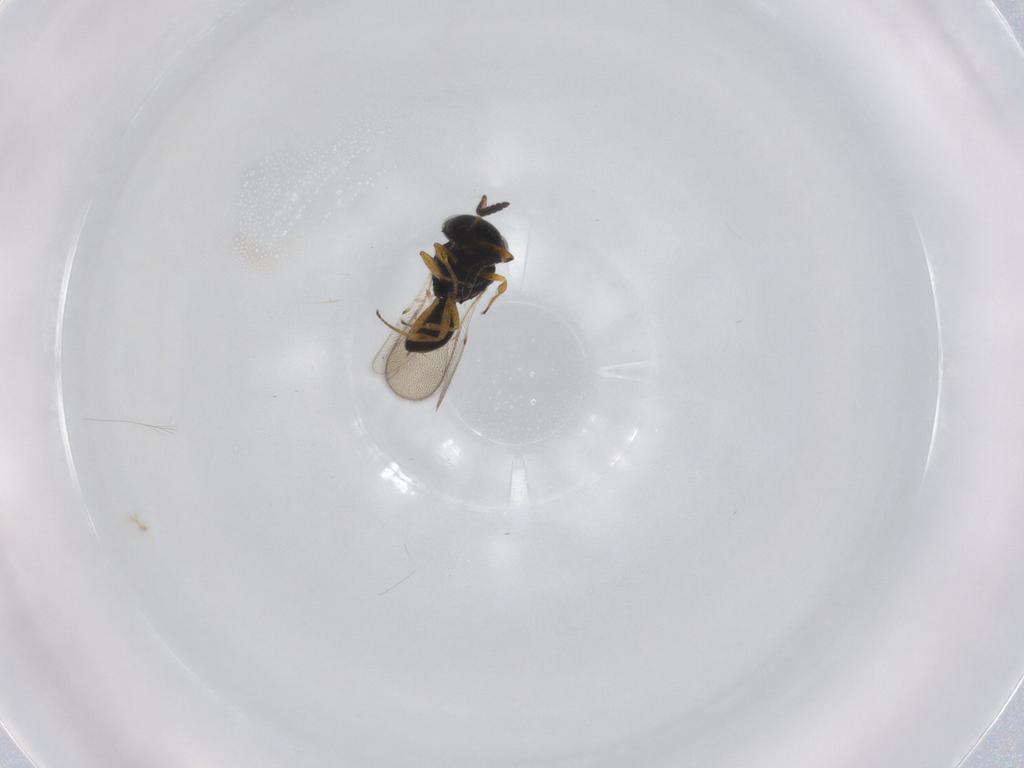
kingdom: Animalia
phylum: Arthropoda
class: Insecta
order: Hymenoptera
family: Scelionidae
